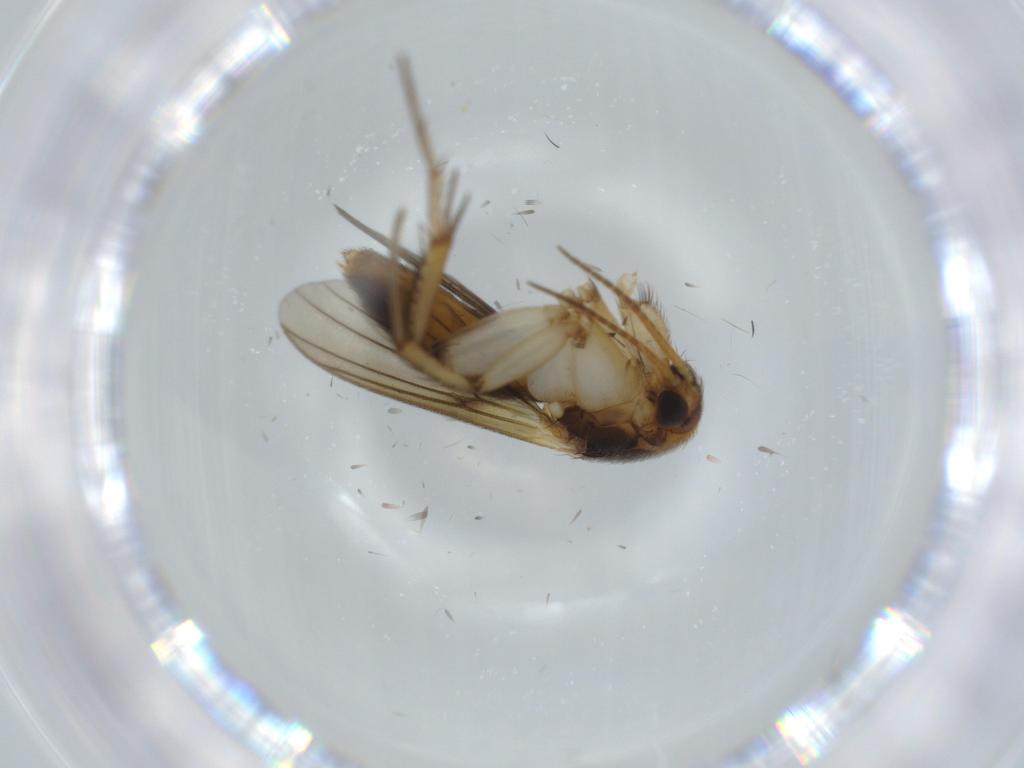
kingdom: Animalia
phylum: Arthropoda
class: Insecta
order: Diptera
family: Mycetophilidae
